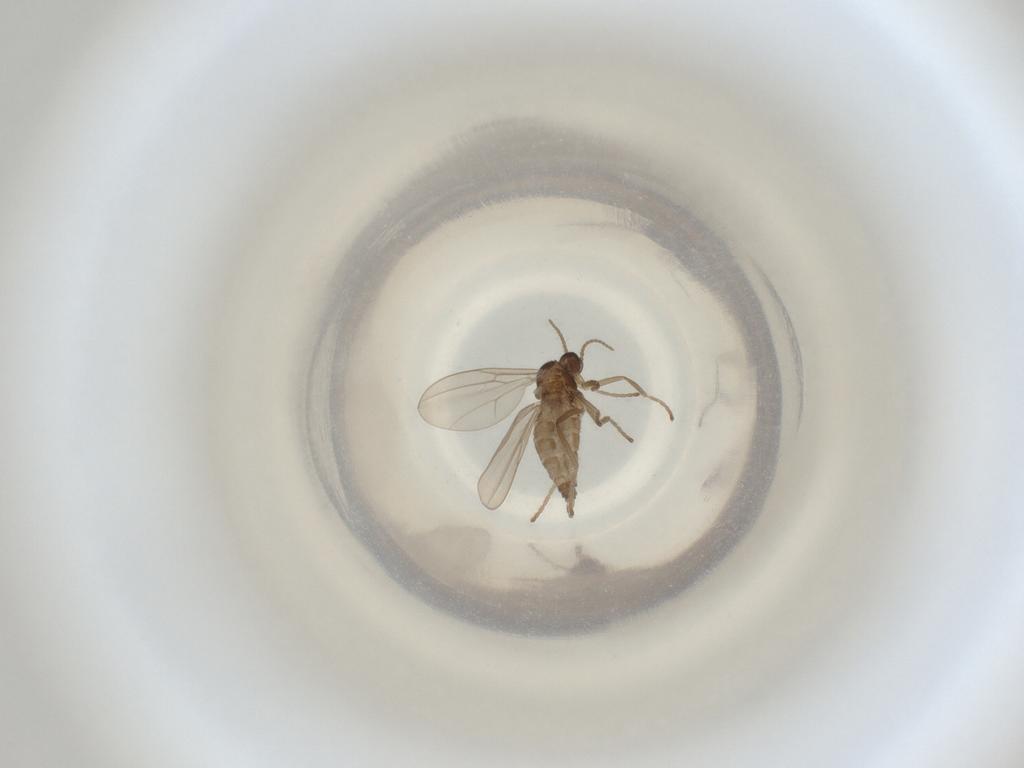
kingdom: Animalia
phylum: Arthropoda
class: Insecta
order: Diptera
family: Cecidomyiidae
